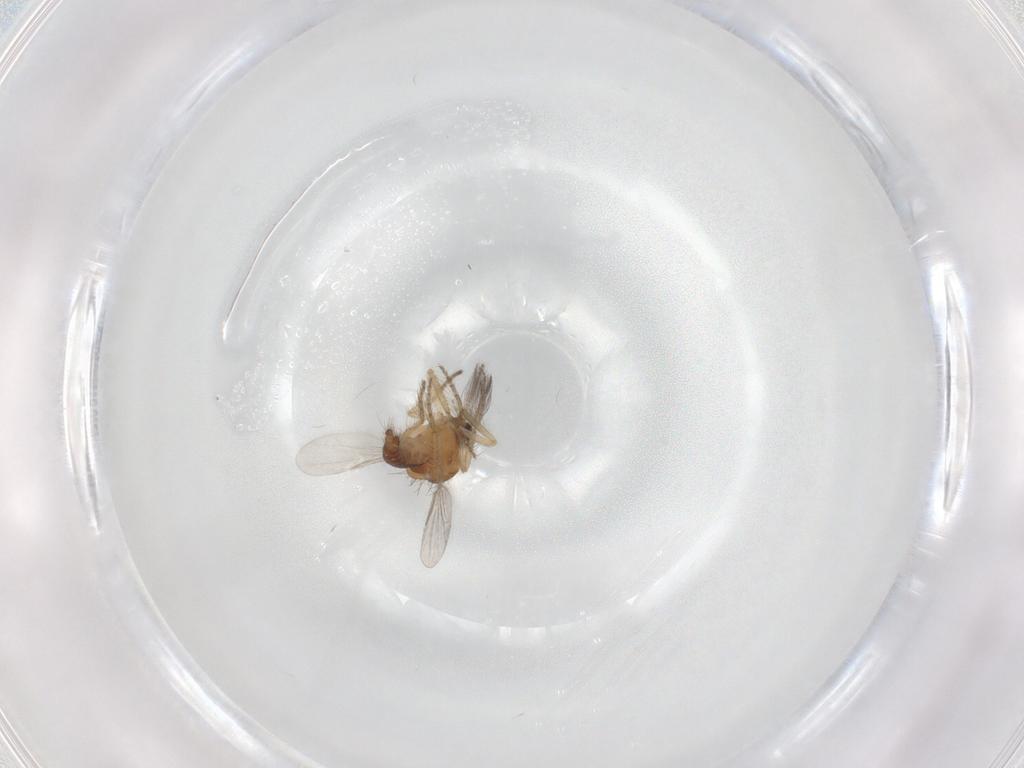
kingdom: Animalia
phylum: Arthropoda
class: Insecta
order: Diptera
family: Ceratopogonidae
